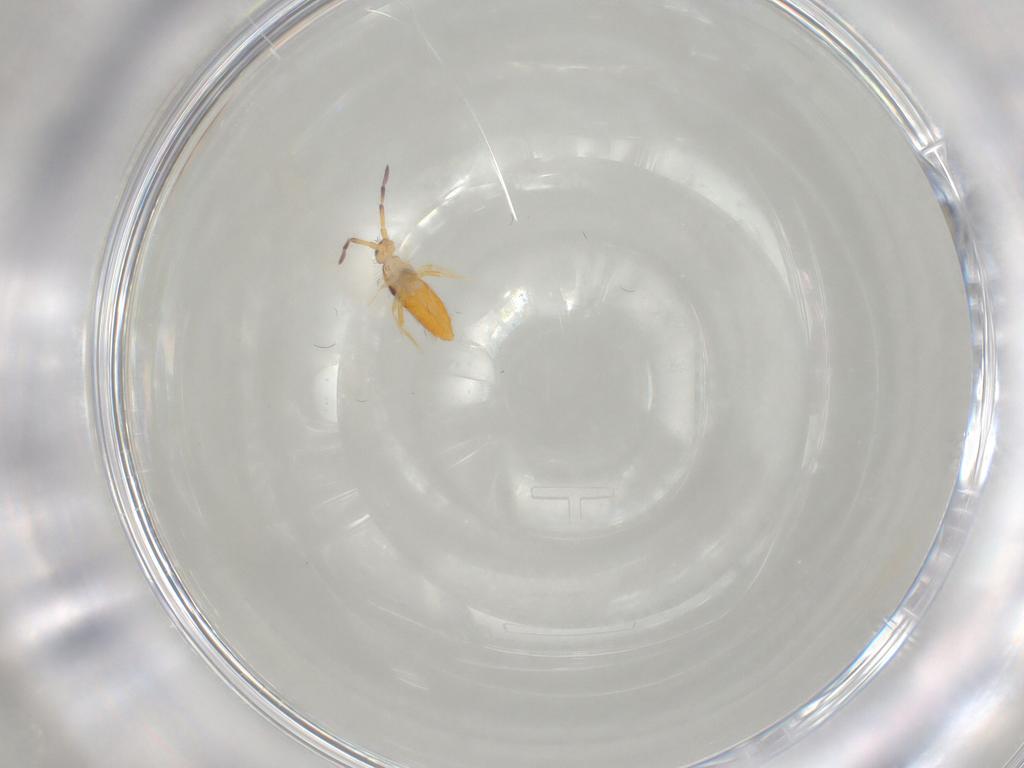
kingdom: Animalia
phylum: Arthropoda
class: Collembola
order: Entomobryomorpha
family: Entomobryidae
